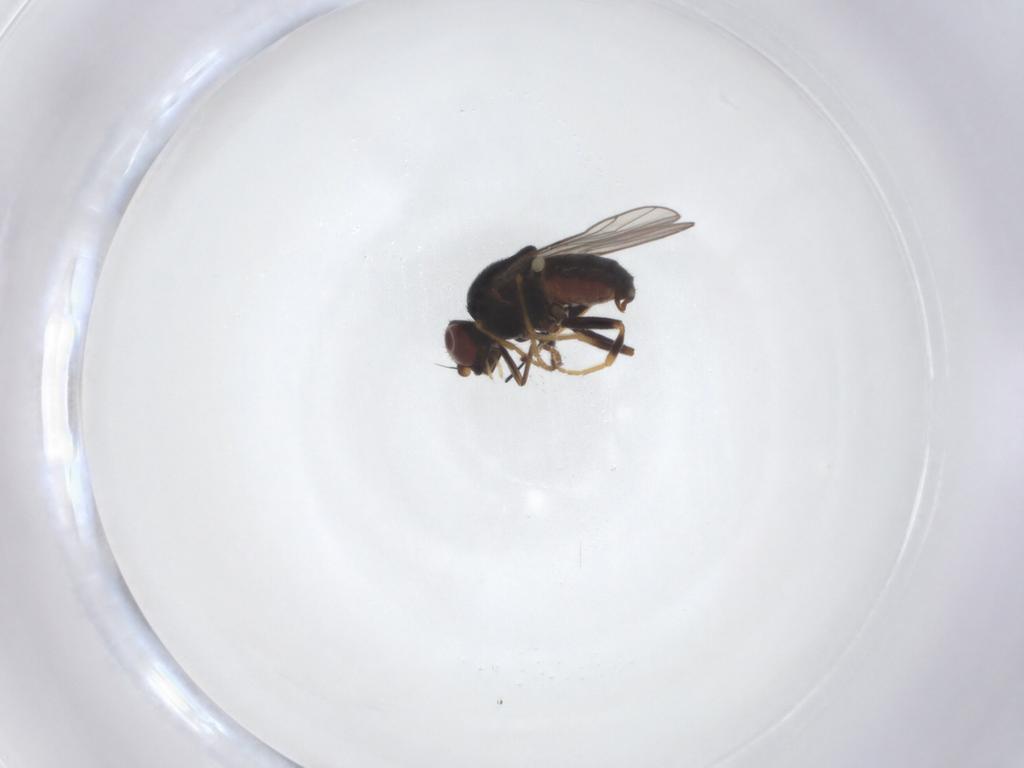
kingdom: Animalia
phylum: Arthropoda
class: Insecta
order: Diptera
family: Chloropidae
